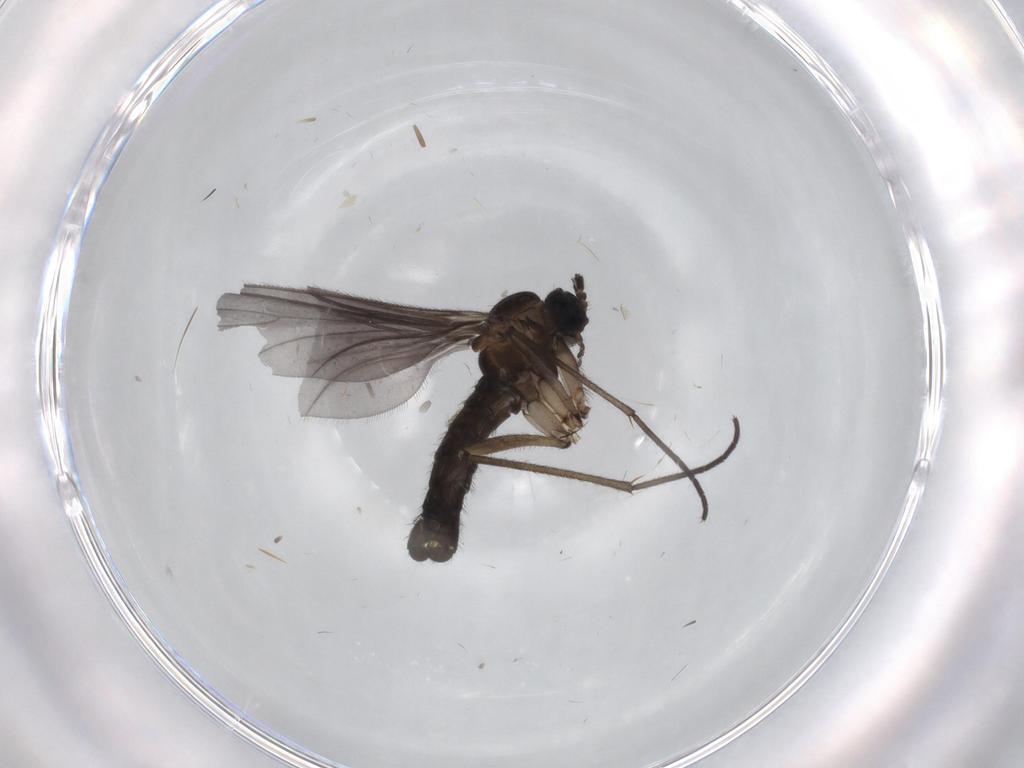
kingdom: Animalia
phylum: Arthropoda
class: Insecta
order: Diptera
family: Sciaridae
